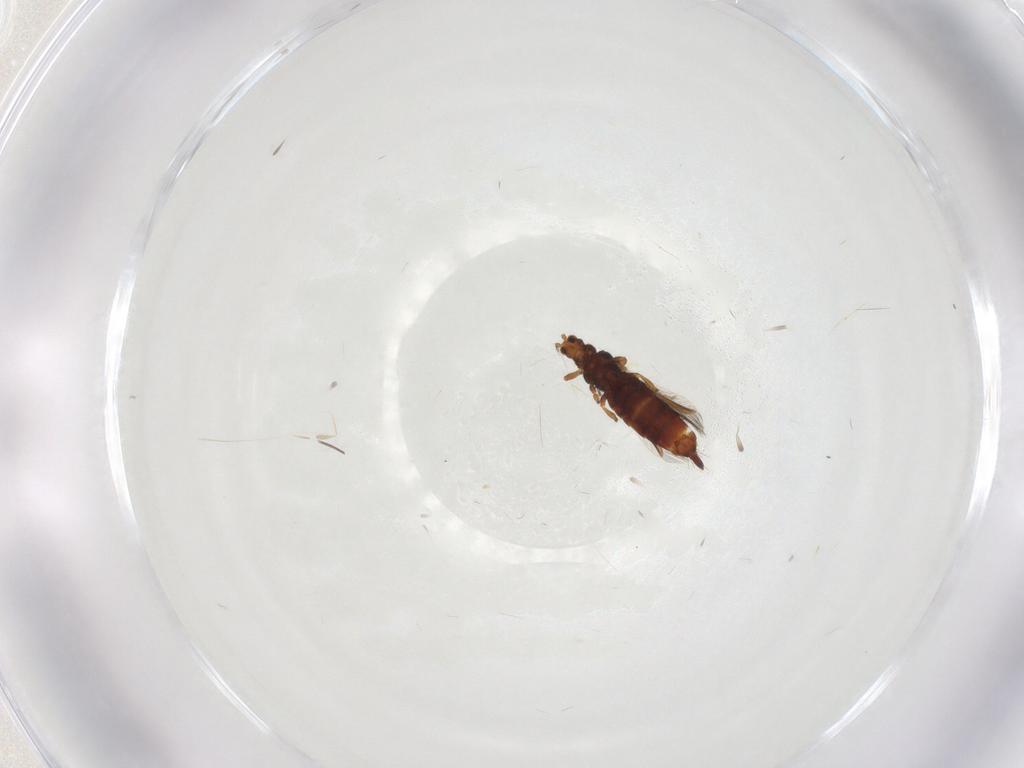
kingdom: Animalia
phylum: Arthropoda
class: Insecta
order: Thysanoptera
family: Thripidae
